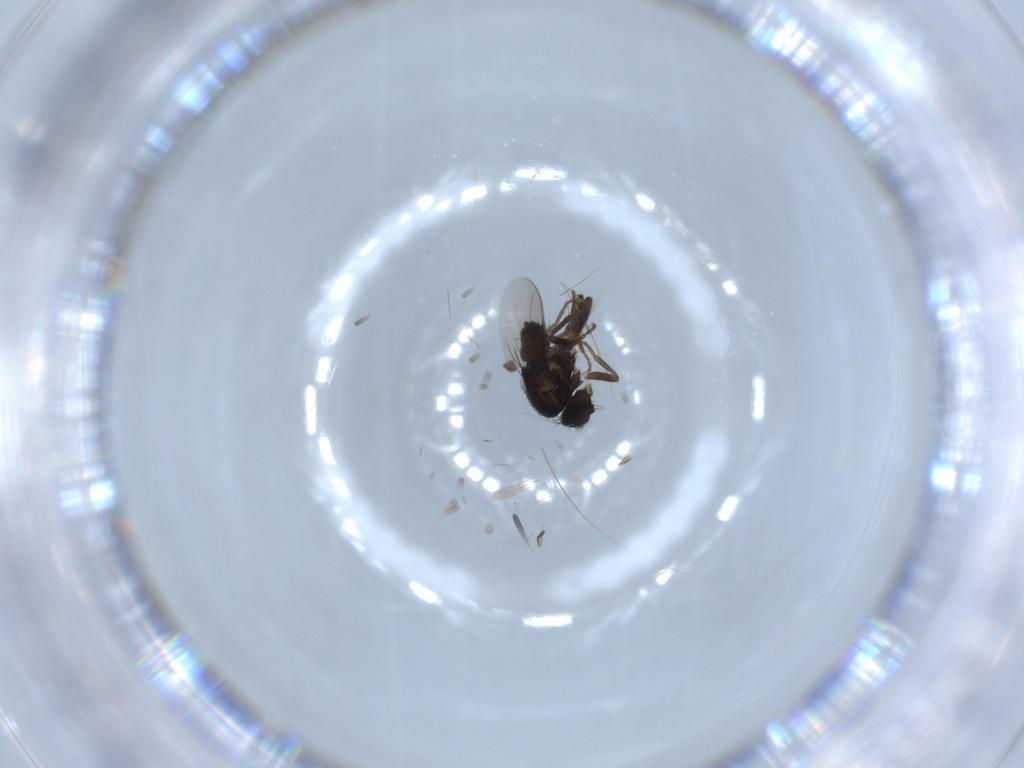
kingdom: Animalia
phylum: Arthropoda
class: Insecta
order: Diptera
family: Sphaeroceridae
